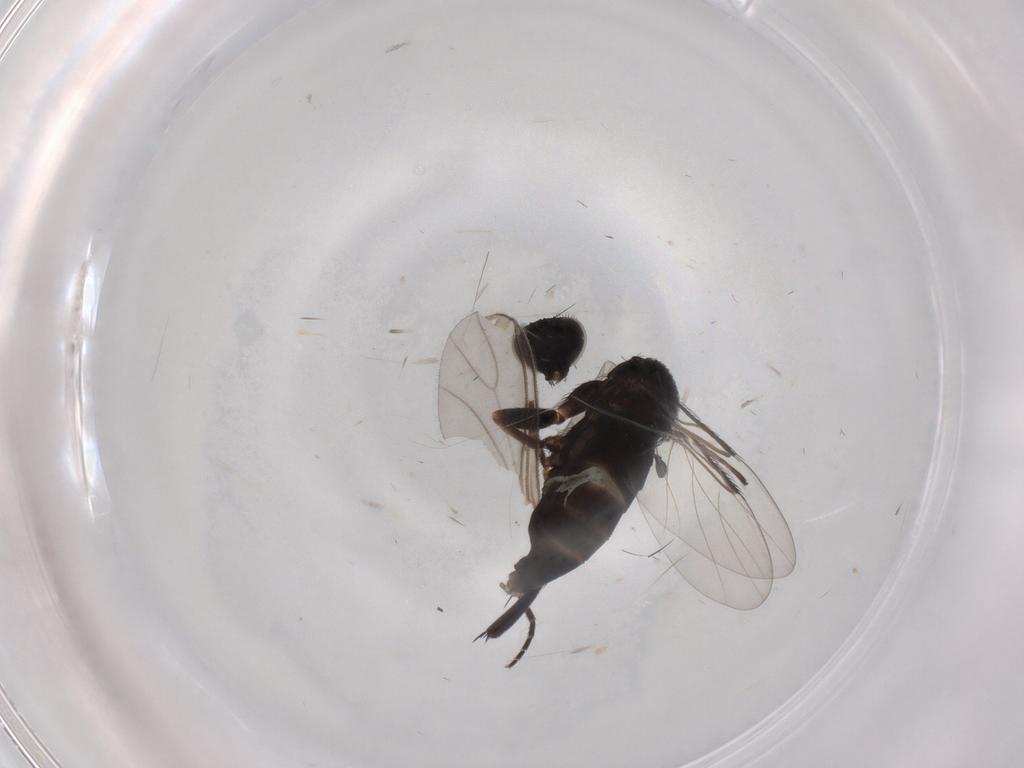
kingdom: Animalia
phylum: Arthropoda
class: Insecta
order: Diptera
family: Phoridae
